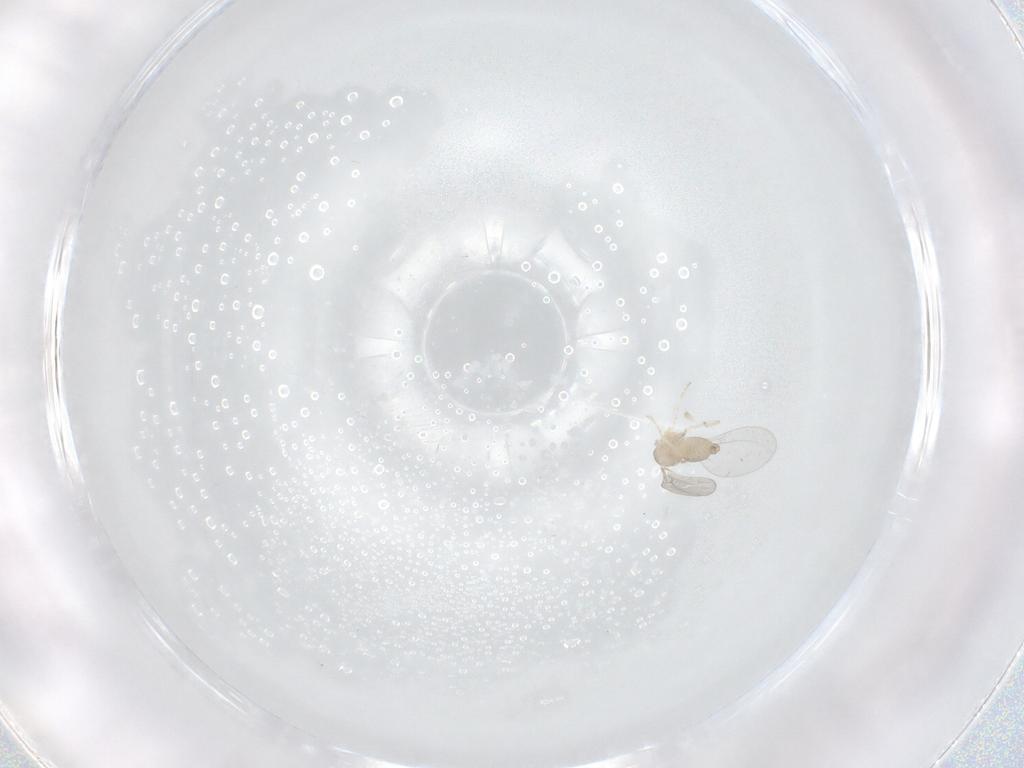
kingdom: Animalia
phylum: Arthropoda
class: Insecta
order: Diptera
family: Cecidomyiidae
